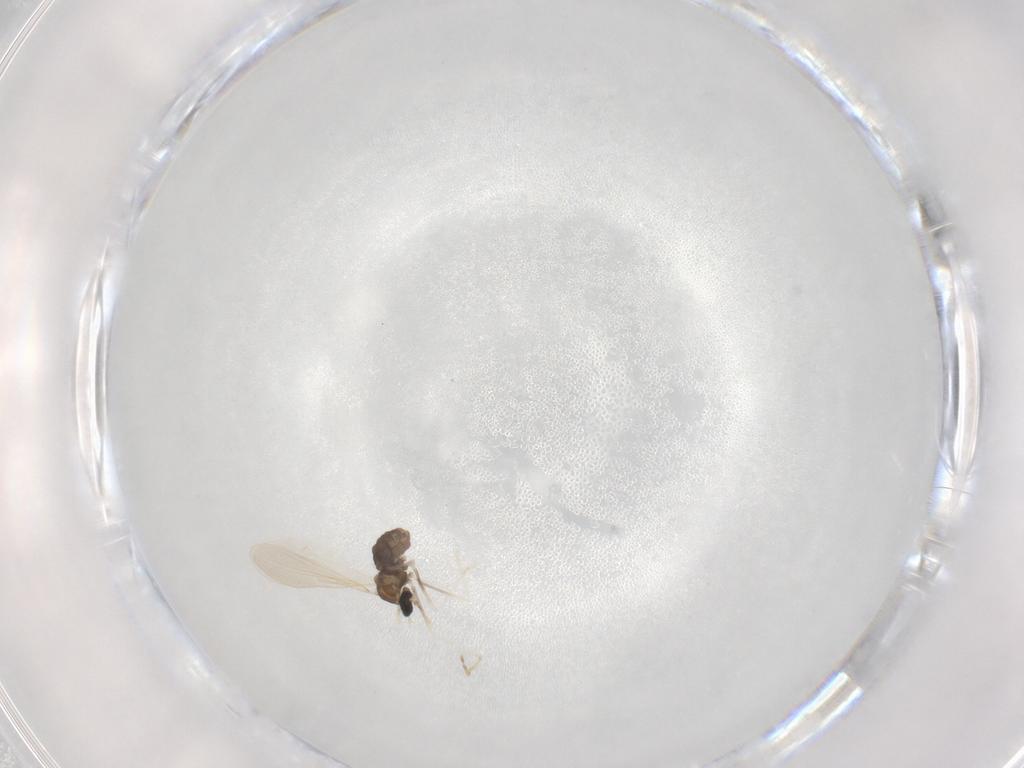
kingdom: Animalia
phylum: Arthropoda
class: Insecta
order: Diptera
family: Cecidomyiidae
